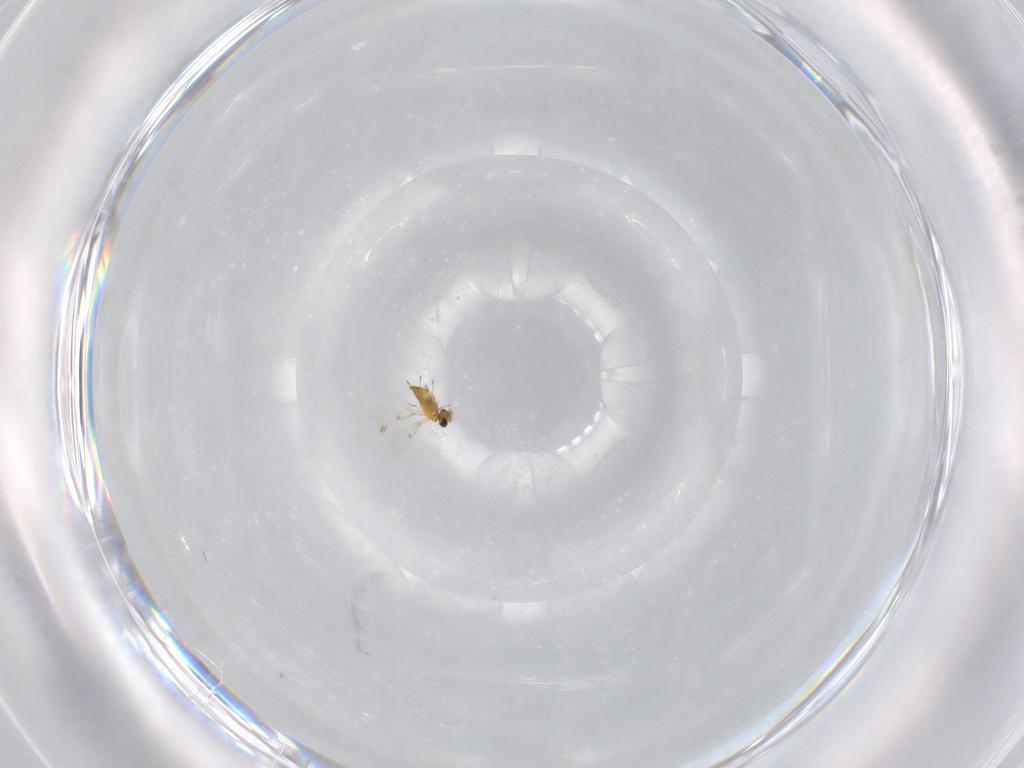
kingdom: Animalia
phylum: Arthropoda
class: Insecta
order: Hymenoptera
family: Trichogrammatidae
